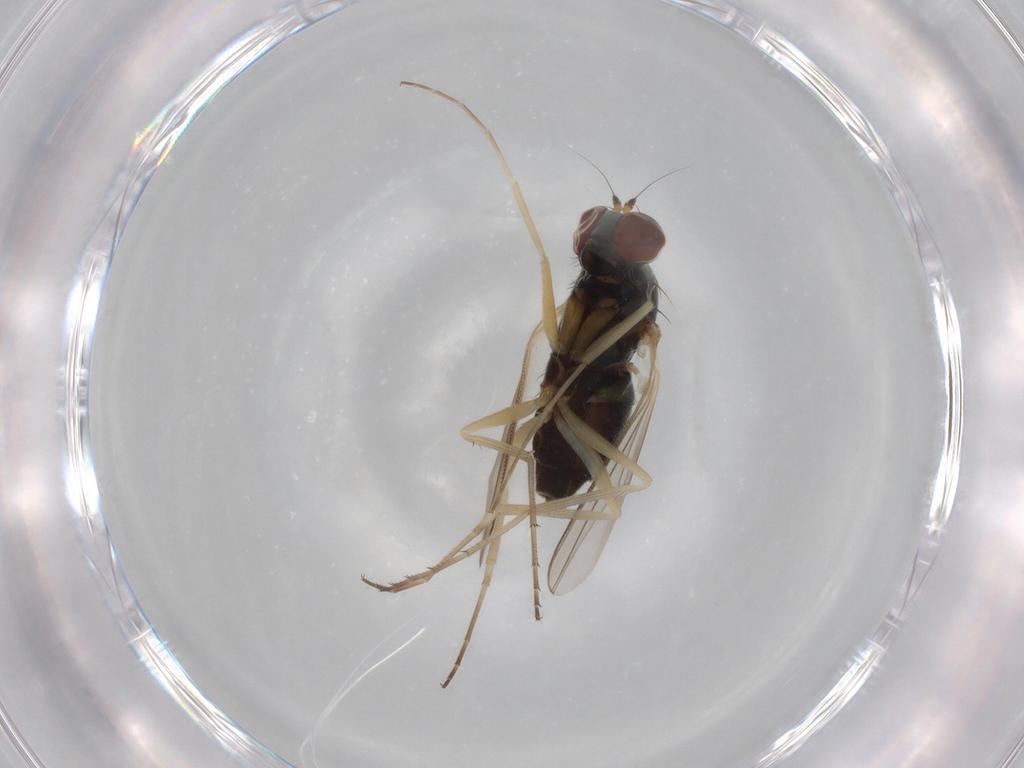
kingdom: Animalia
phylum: Arthropoda
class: Insecta
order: Diptera
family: Dolichopodidae
